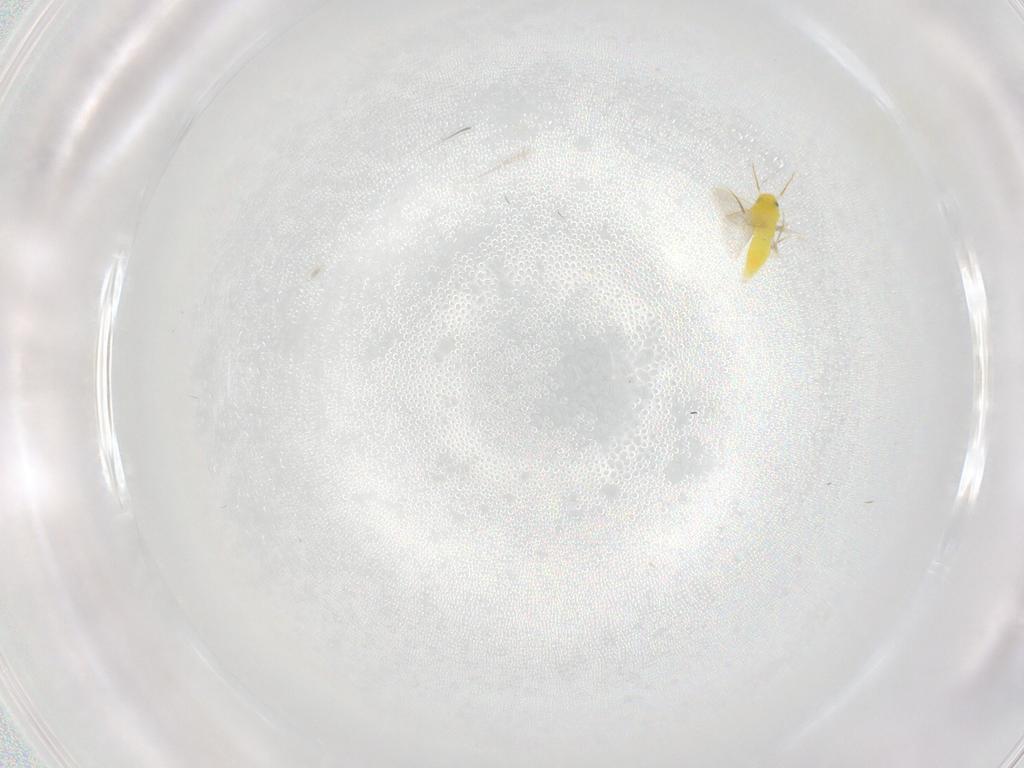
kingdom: Animalia
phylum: Arthropoda
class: Insecta
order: Hemiptera
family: Aleyrodidae
